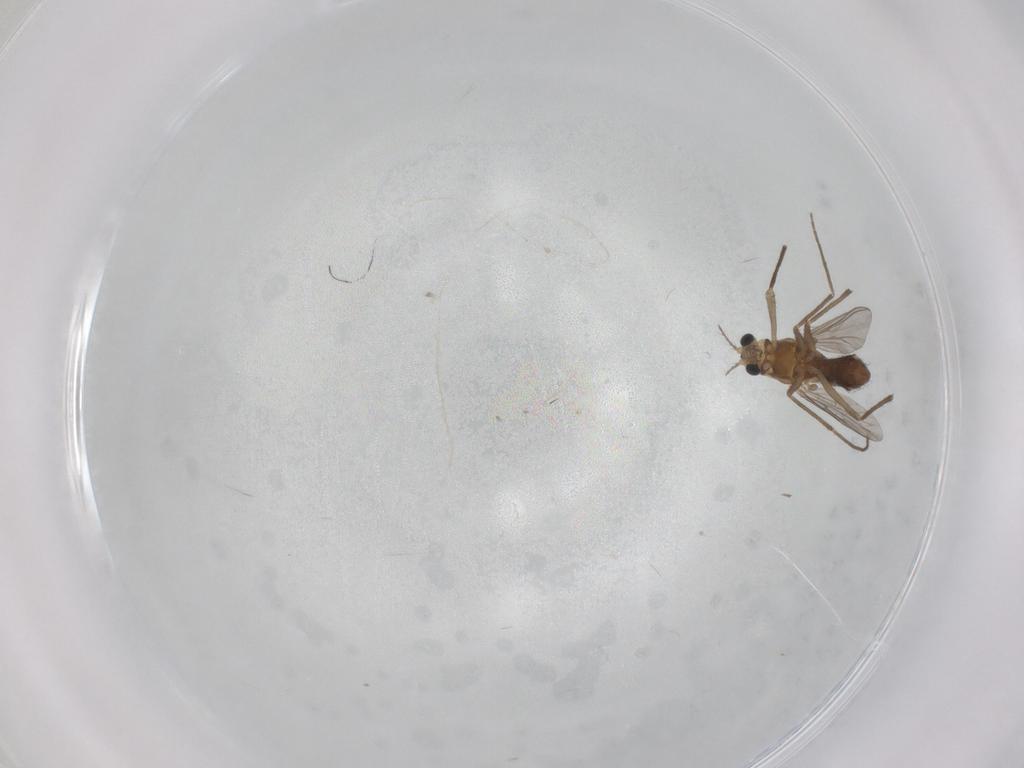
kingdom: Animalia
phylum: Arthropoda
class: Insecta
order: Diptera
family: Chironomidae
